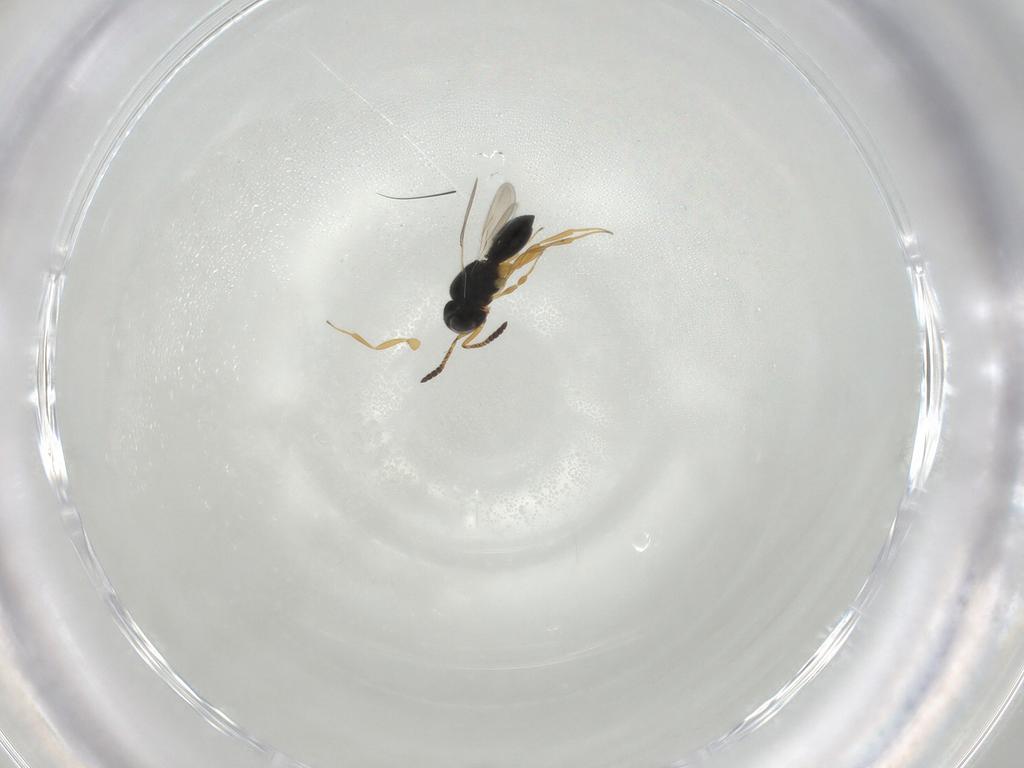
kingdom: Animalia
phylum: Arthropoda
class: Insecta
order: Hymenoptera
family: Scelionidae
